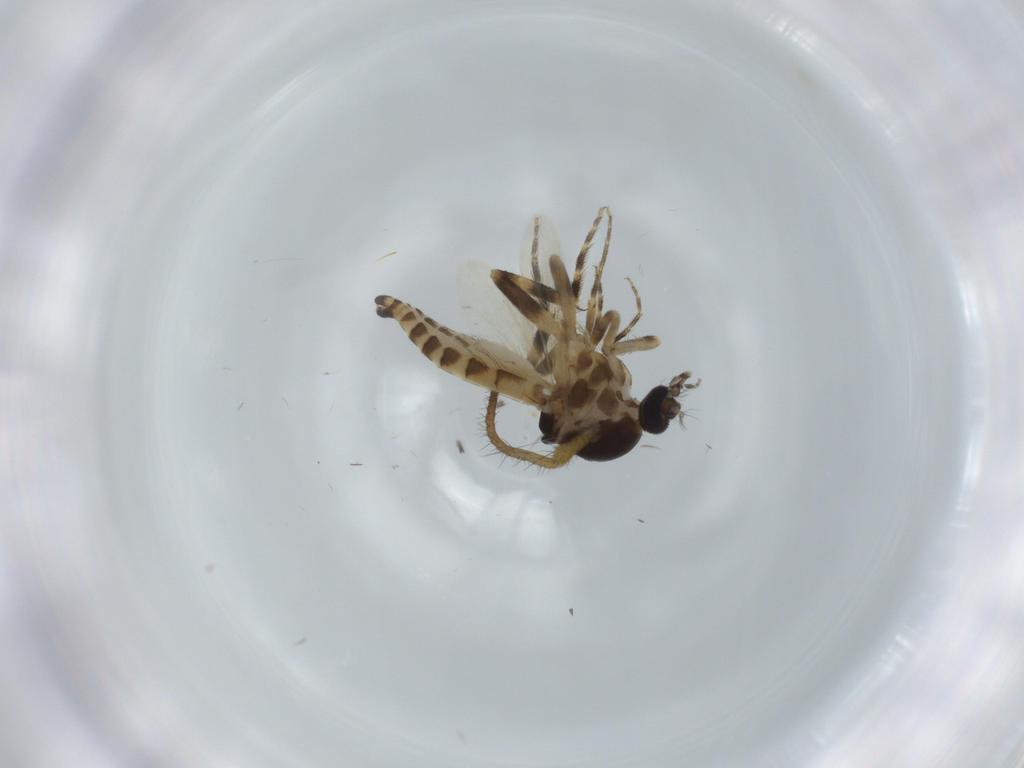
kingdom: Animalia
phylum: Arthropoda
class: Insecta
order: Diptera
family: Ceratopogonidae
